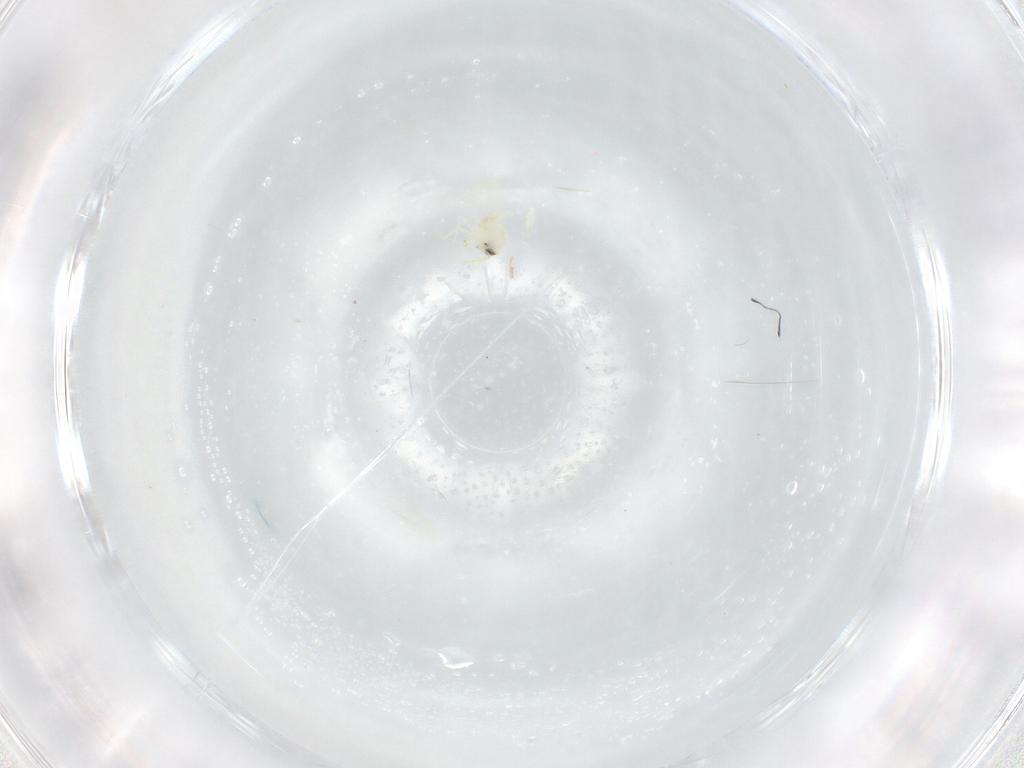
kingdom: Animalia
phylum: Arthropoda
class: Insecta
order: Hemiptera
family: Aleyrodidae
